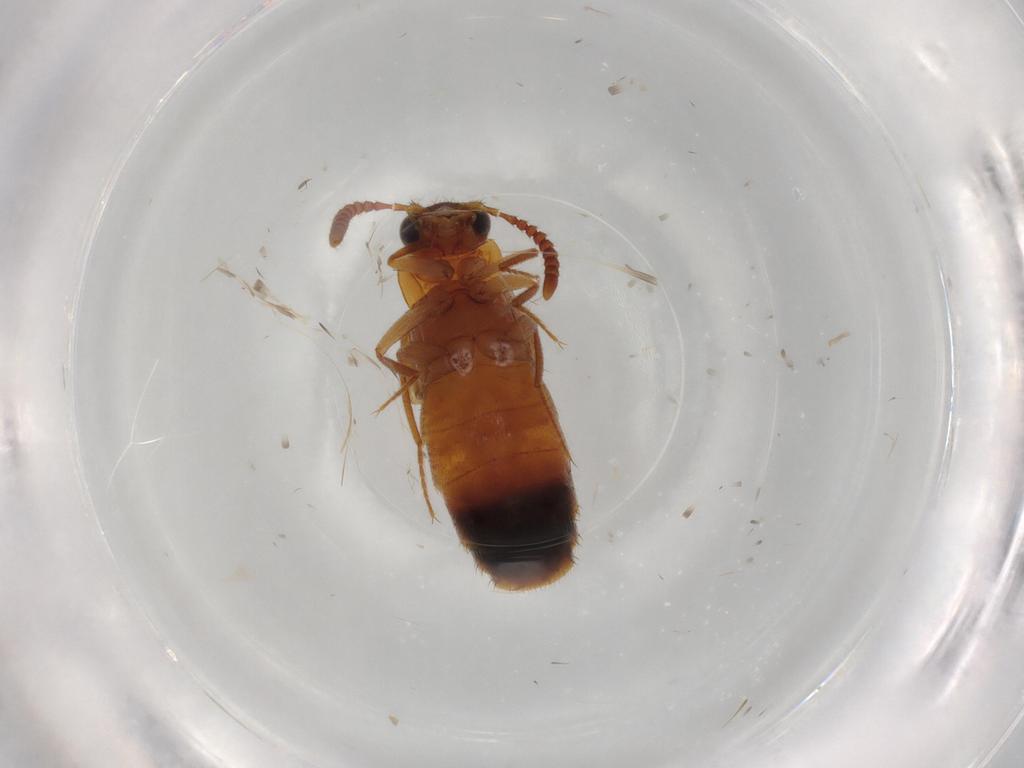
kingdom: Animalia
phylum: Arthropoda
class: Insecta
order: Coleoptera
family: Staphylinidae
